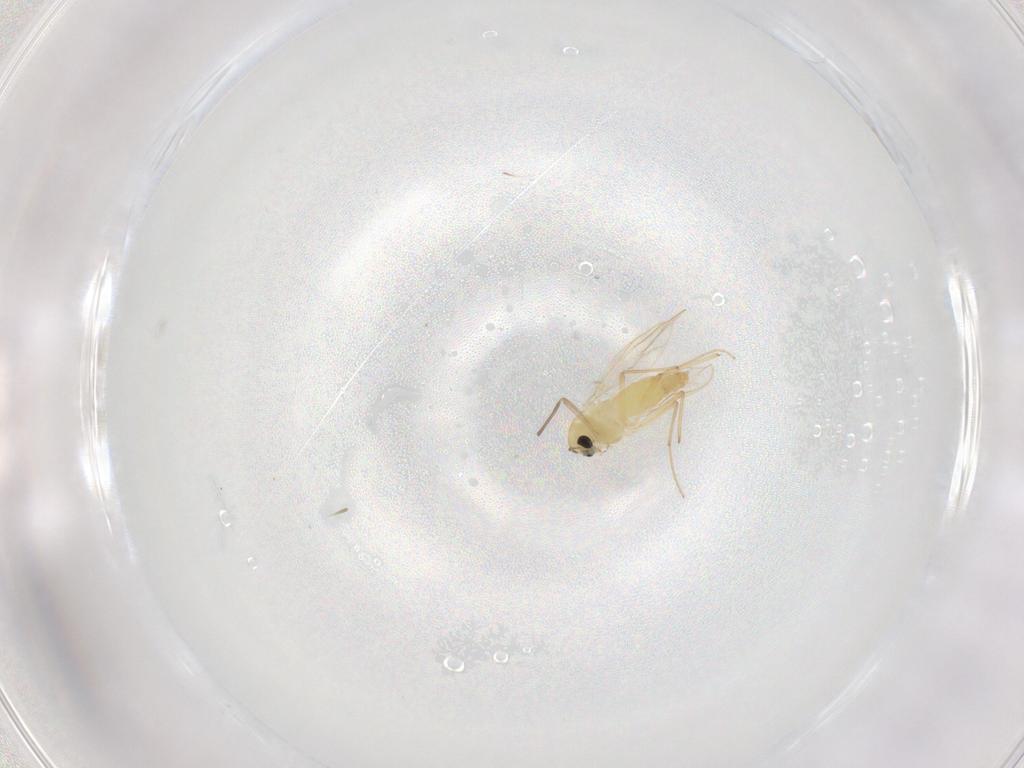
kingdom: Animalia
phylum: Arthropoda
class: Insecta
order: Diptera
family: Chironomidae
